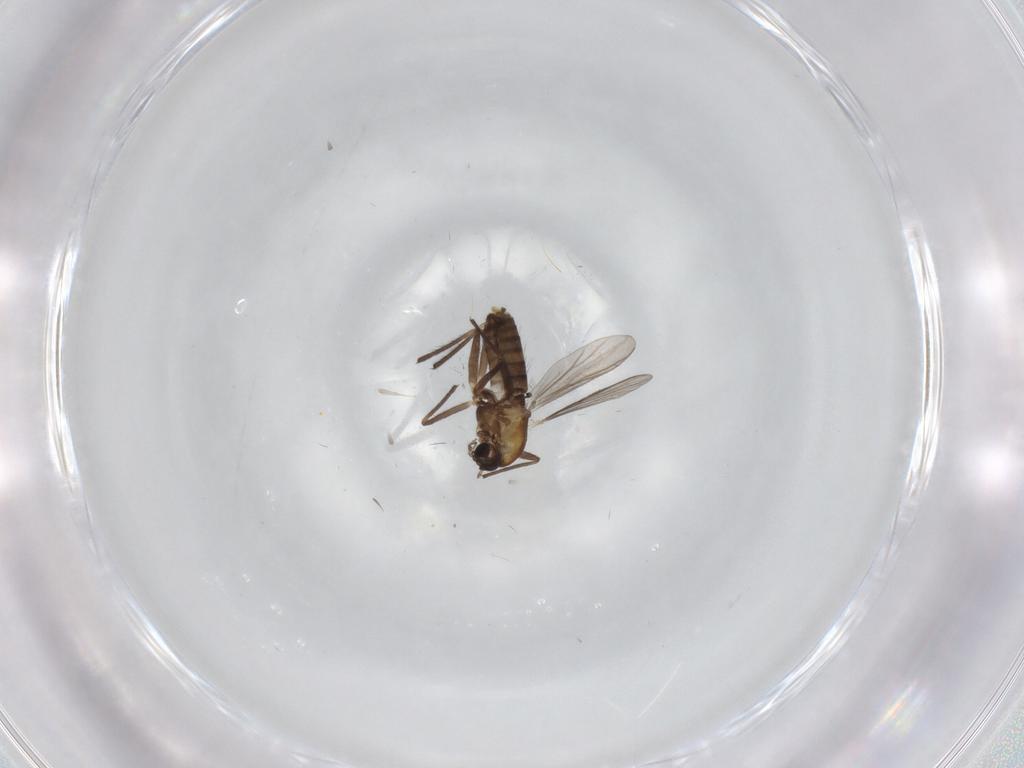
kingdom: Animalia
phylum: Arthropoda
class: Insecta
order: Diptera
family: Chironomidae
